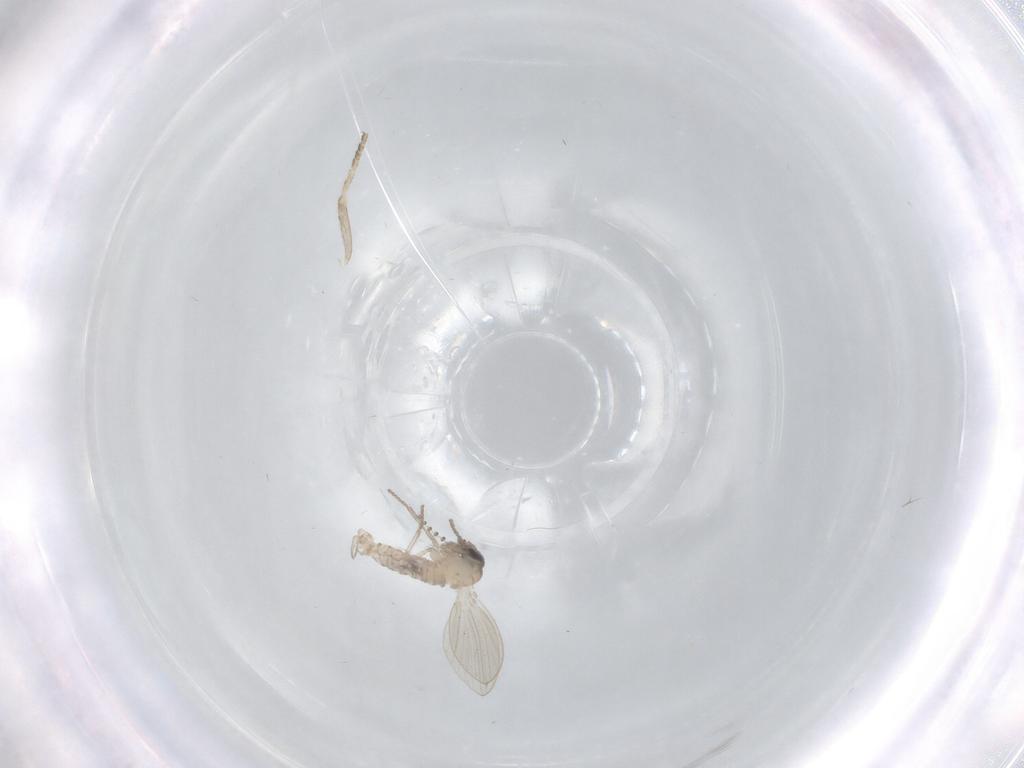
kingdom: Animalia
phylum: Arthropoda
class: Insecta
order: Diptera
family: Psychodidae
